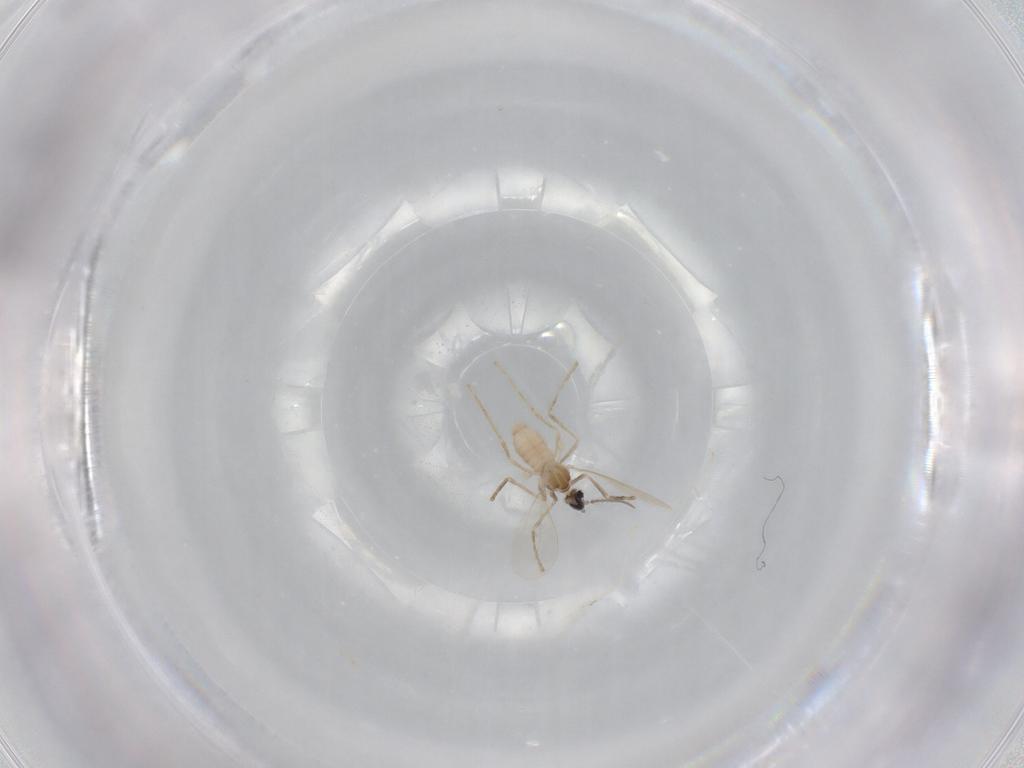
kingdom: Animalia
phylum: Arthropoda
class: Insecta
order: Diptera
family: Cecidomyiidae
